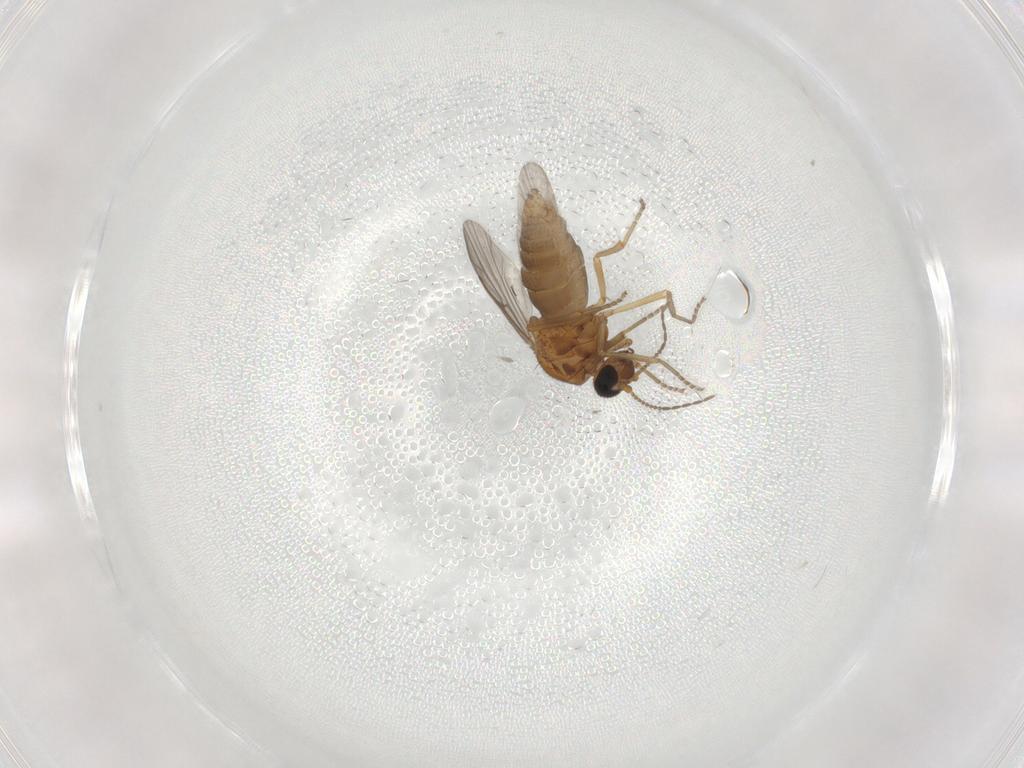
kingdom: Animalia
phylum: Arthropoda
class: Insecta
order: Diptera
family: Ceratopogonidae
